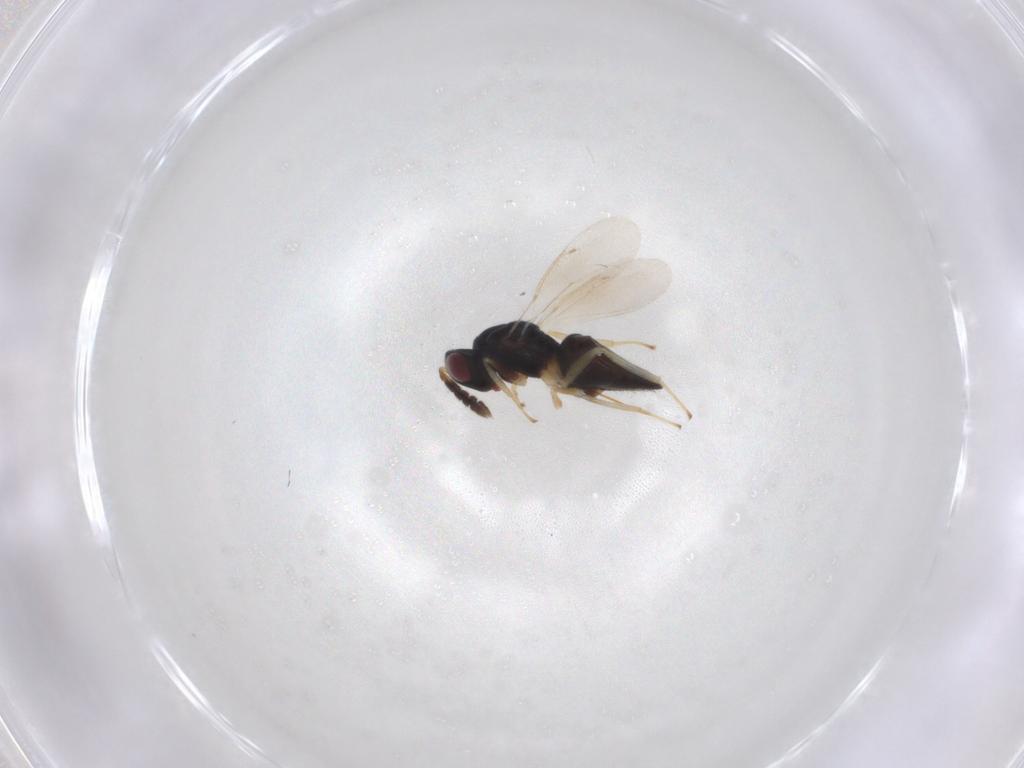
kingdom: Animalia
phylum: Arthropoda
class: Insecta
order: Hymenoptera
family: Eulophidae
